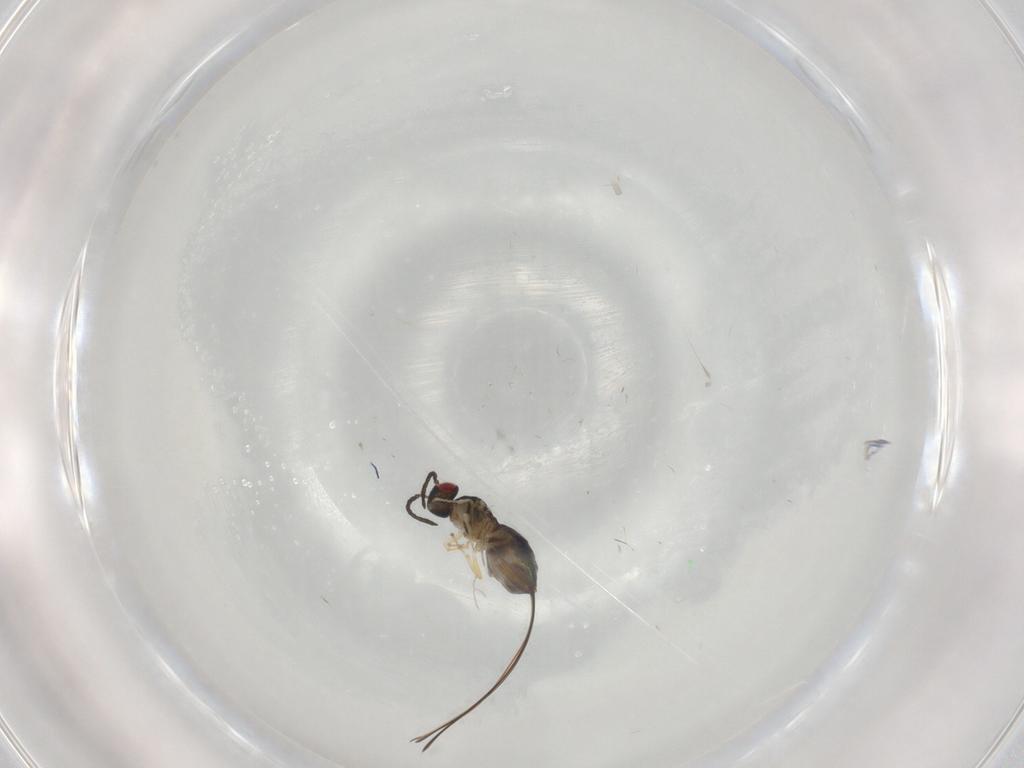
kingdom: Animalia
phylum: Arthropoda
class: Insecta
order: Hymenoptera
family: Pteromalidae
